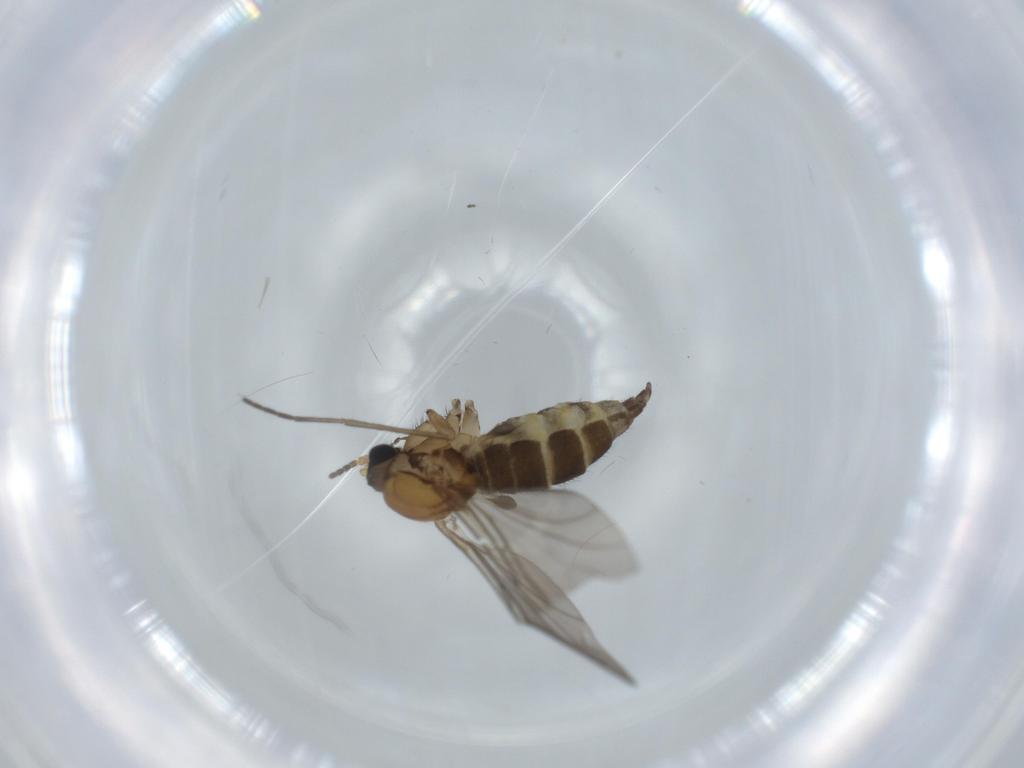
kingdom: Animalia
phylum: Arthropoda
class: Insecta
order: Diptera
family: Sciaridae
